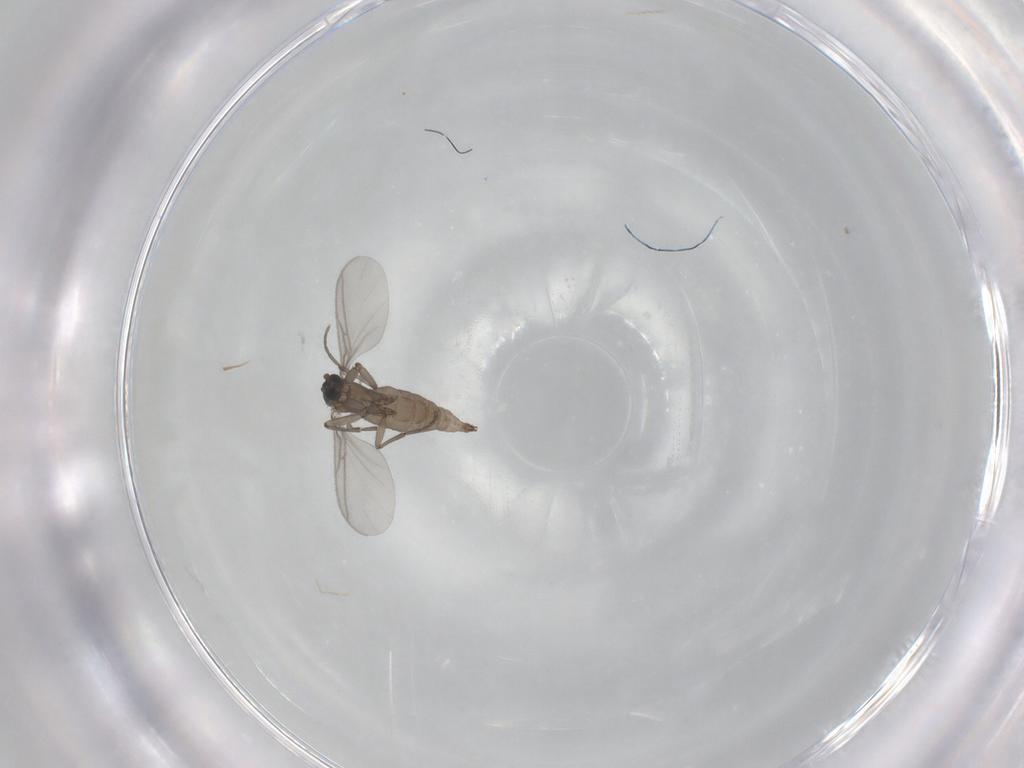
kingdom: Animalia
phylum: Arthropoda
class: Insecta
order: Diptera
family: Sciaridae
